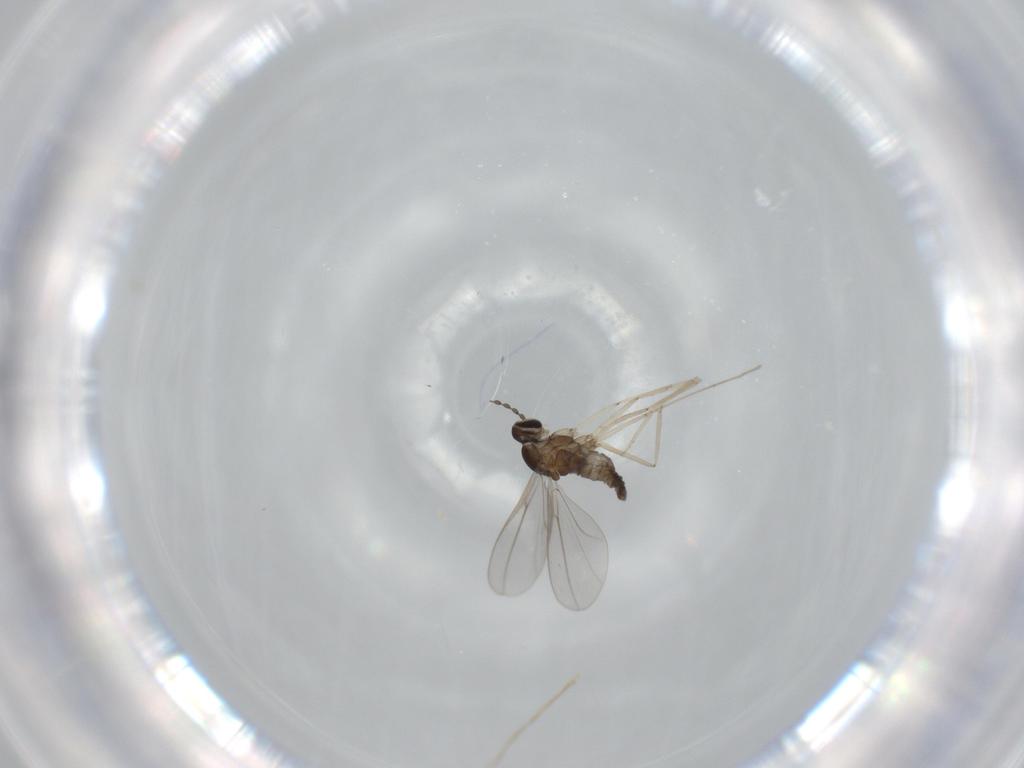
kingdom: Animalia
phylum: Arthropoda
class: Insecta
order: Diptera
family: Cecidomyiidae
